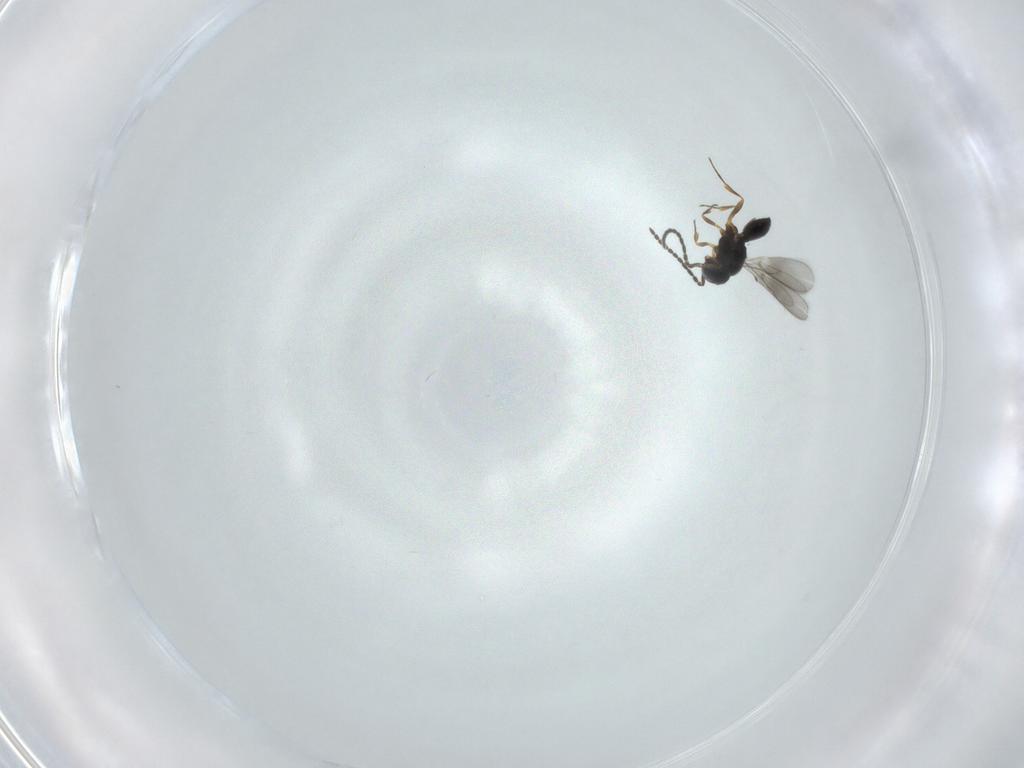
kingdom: Animalia
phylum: Arthropoda
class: Insecta
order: Hymenoptera
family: Scelionidae
